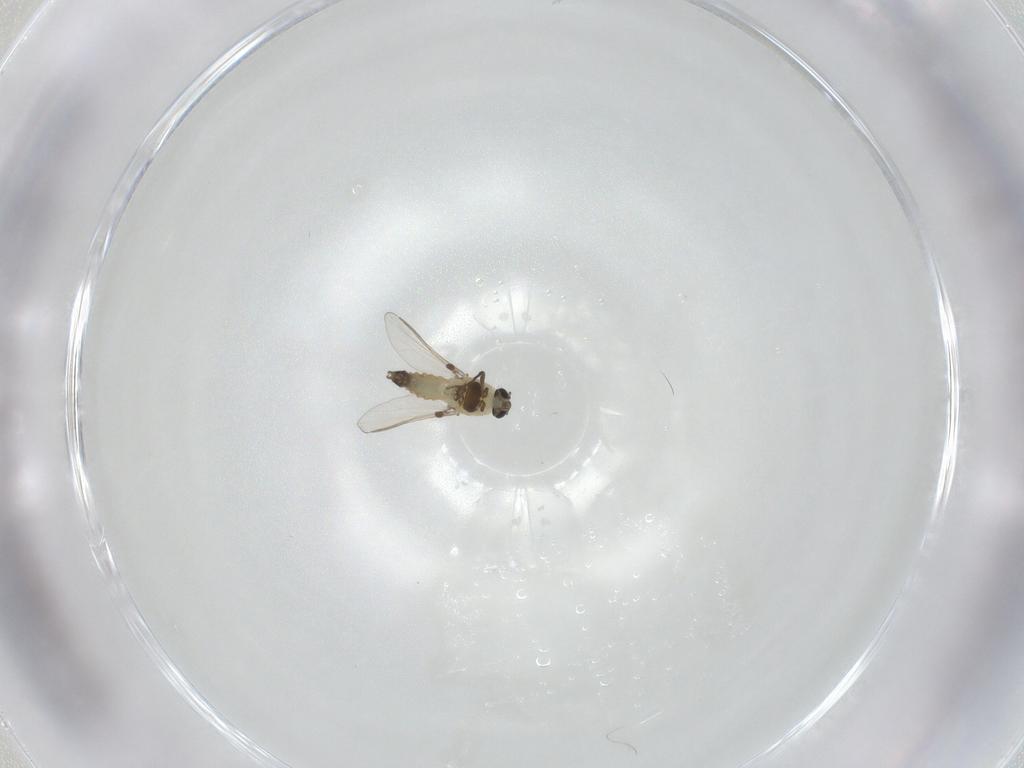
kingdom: Animalia
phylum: Arthropoda
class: Insecta
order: Diptera
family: Chironomidae
